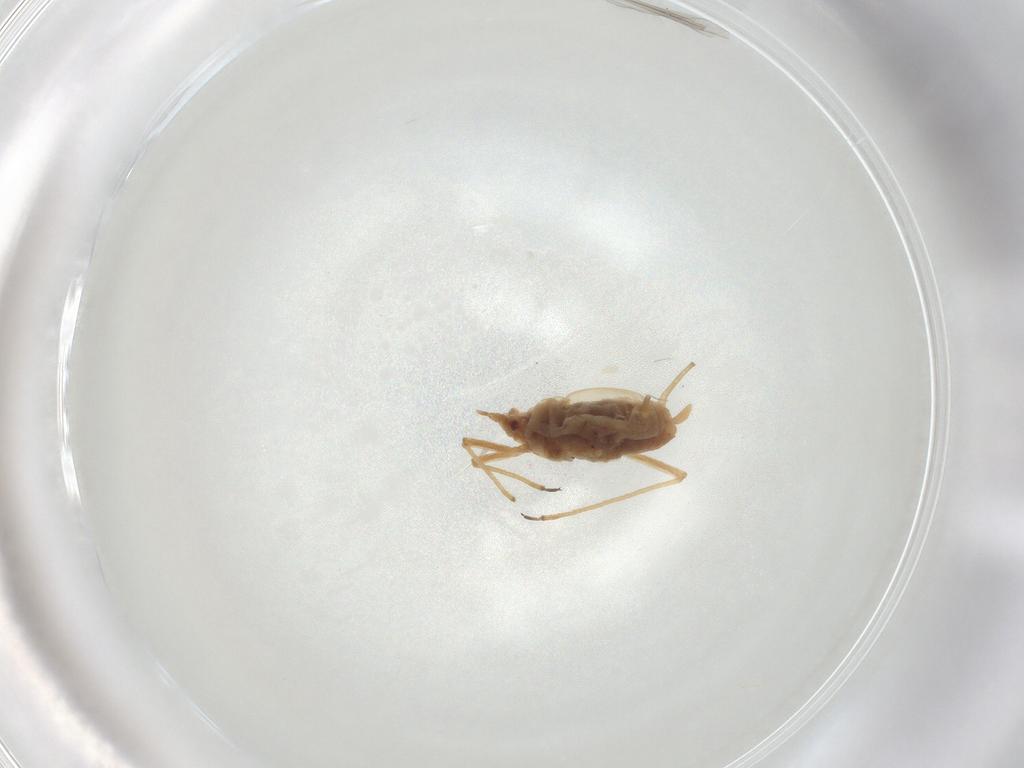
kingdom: Animalia
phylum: Arthropoda
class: Insecta
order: Hemiptera
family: Aphididae
